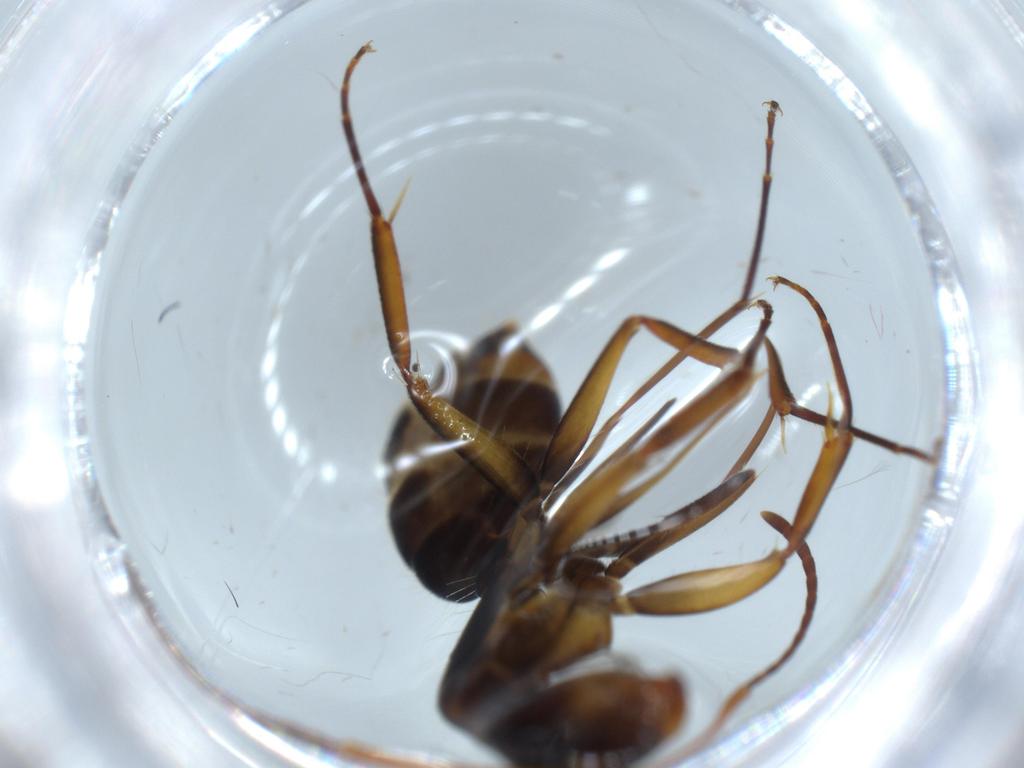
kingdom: Animalia
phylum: Arthropoda
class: Insecta
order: Hymenoptera
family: Formicidae
